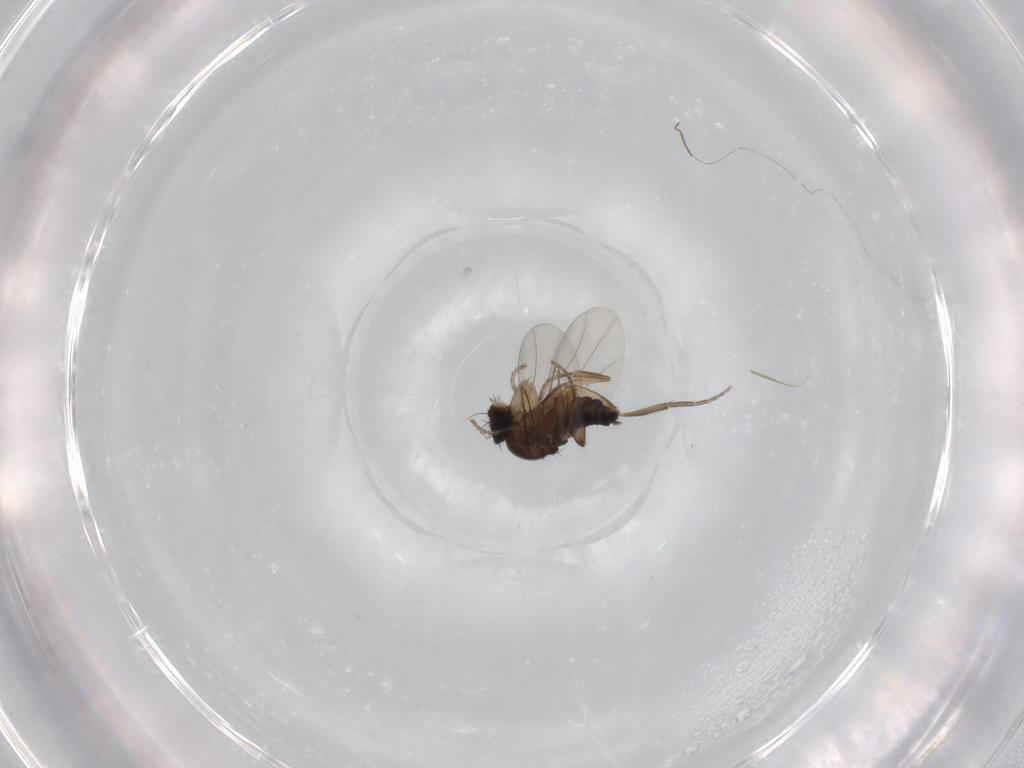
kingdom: Animalia
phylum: Arthropoda
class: Insecta
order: Diptera
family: Phoridae
